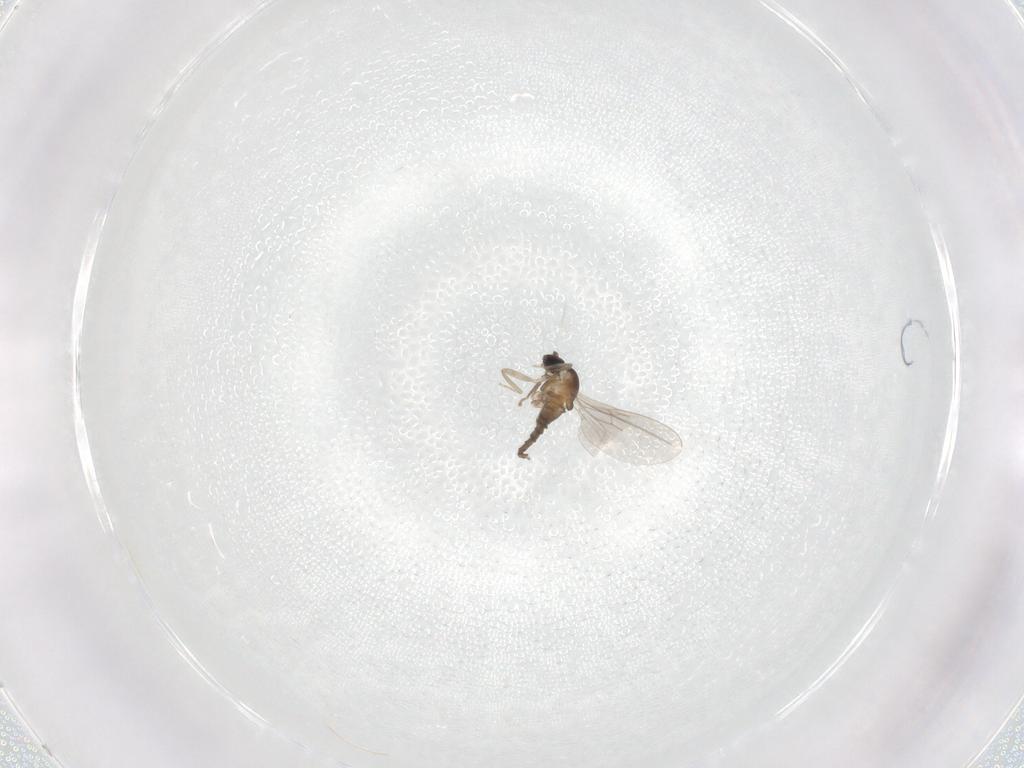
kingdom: Animalia
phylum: Arthropoda
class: Insecta
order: Diptera
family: Cecidomyiidae
